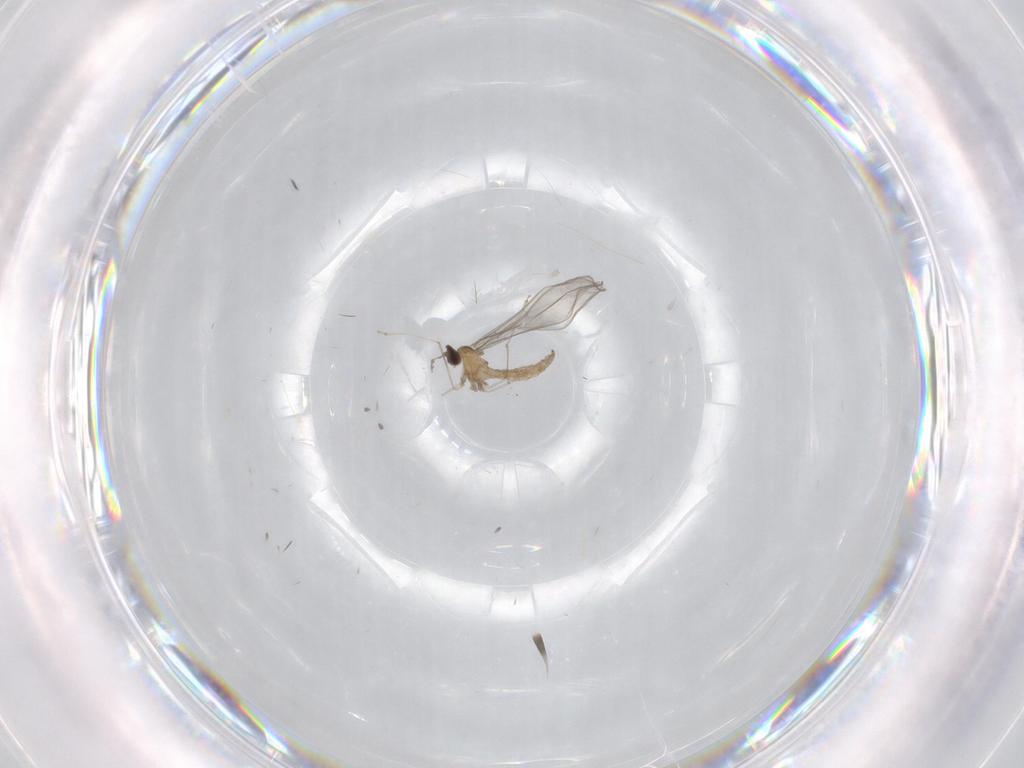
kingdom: Animalia
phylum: Arthropoda
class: Insecta
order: Diptera
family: Cecidomyiidae
